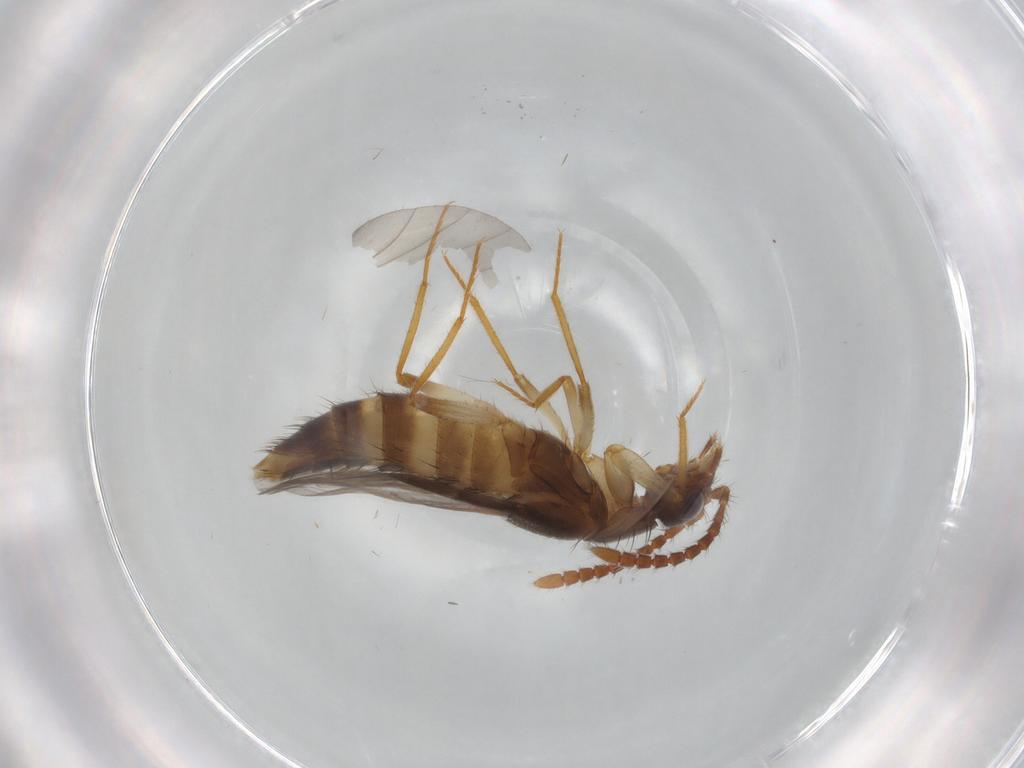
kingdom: Animalia
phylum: Arthropoda
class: Insecta
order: Coleoptera
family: Staphylinidae
